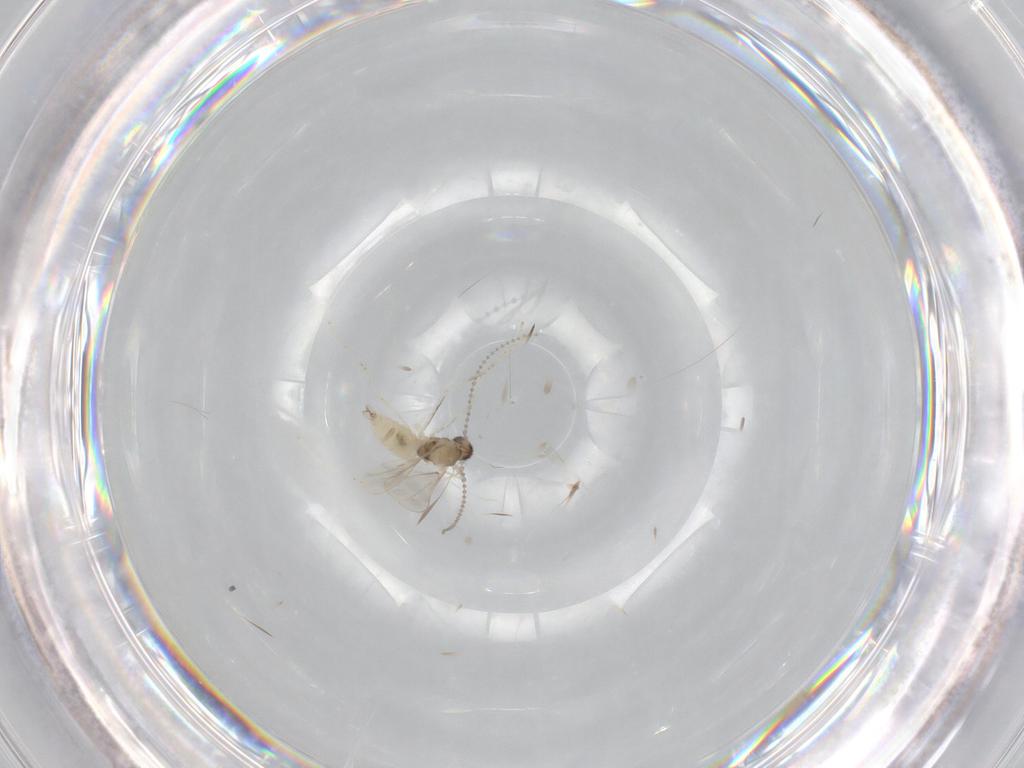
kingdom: Animalia
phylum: Arthropoda
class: Insecta
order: Diptera
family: Cecidomyiidae
